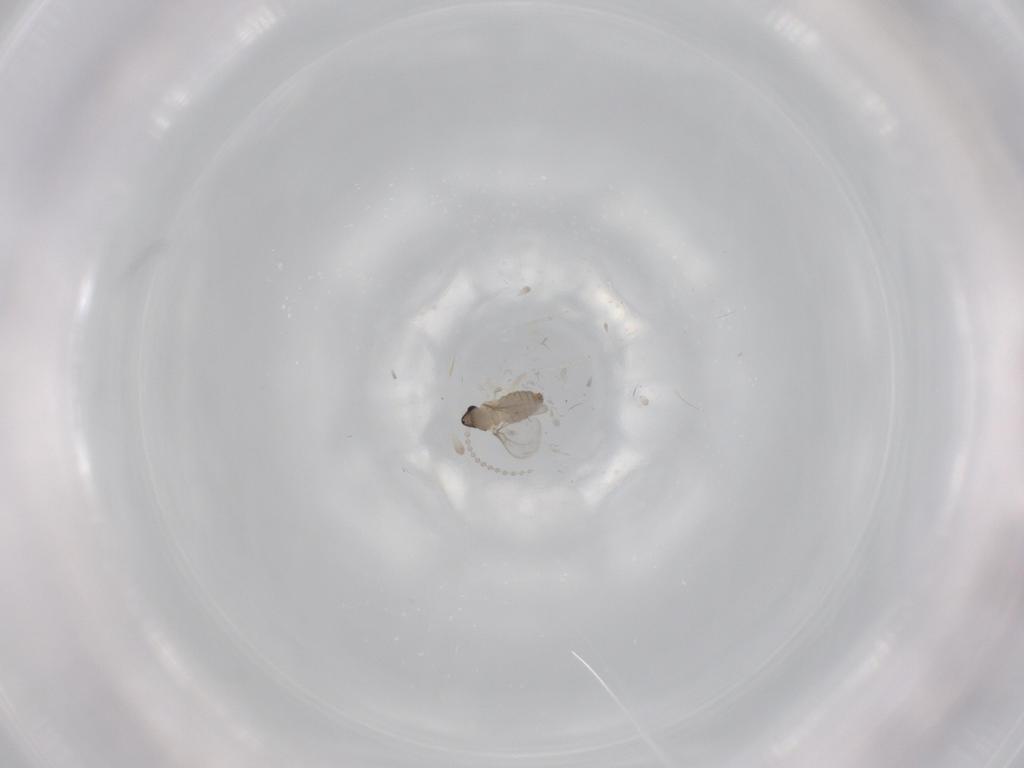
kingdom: Animalia
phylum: Arthropoda
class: Insecta
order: Diptera
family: Cecidomyiidae
